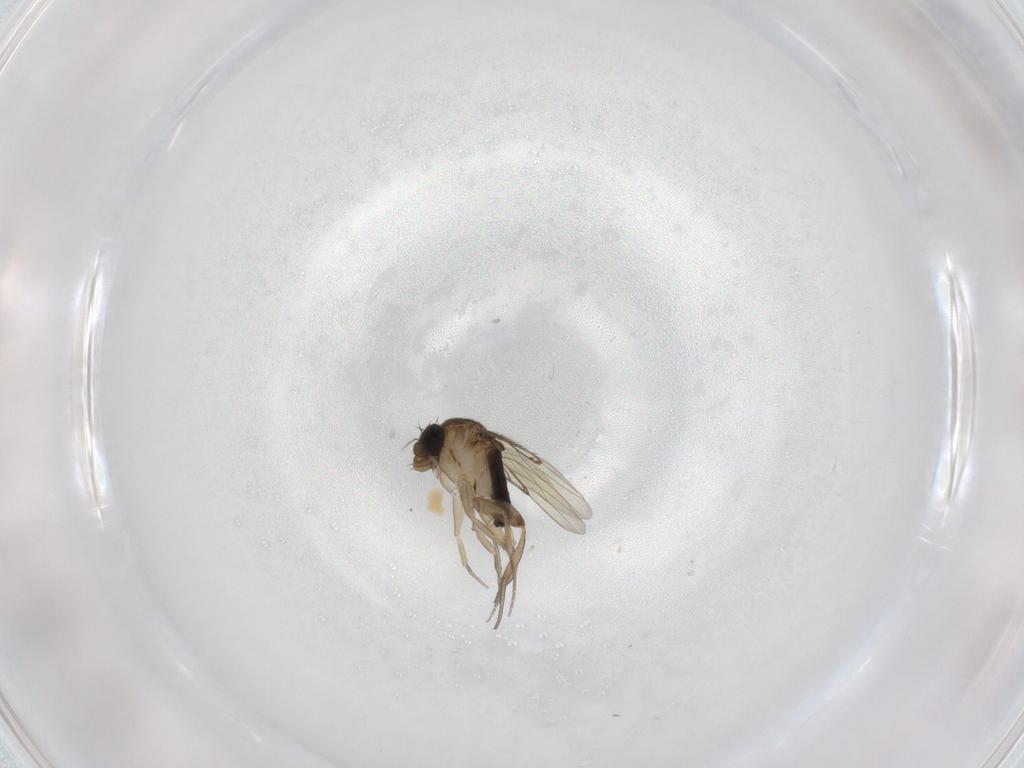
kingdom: Animalia
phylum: Arthropoda
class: Insecta
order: Diptera
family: Phoridae
